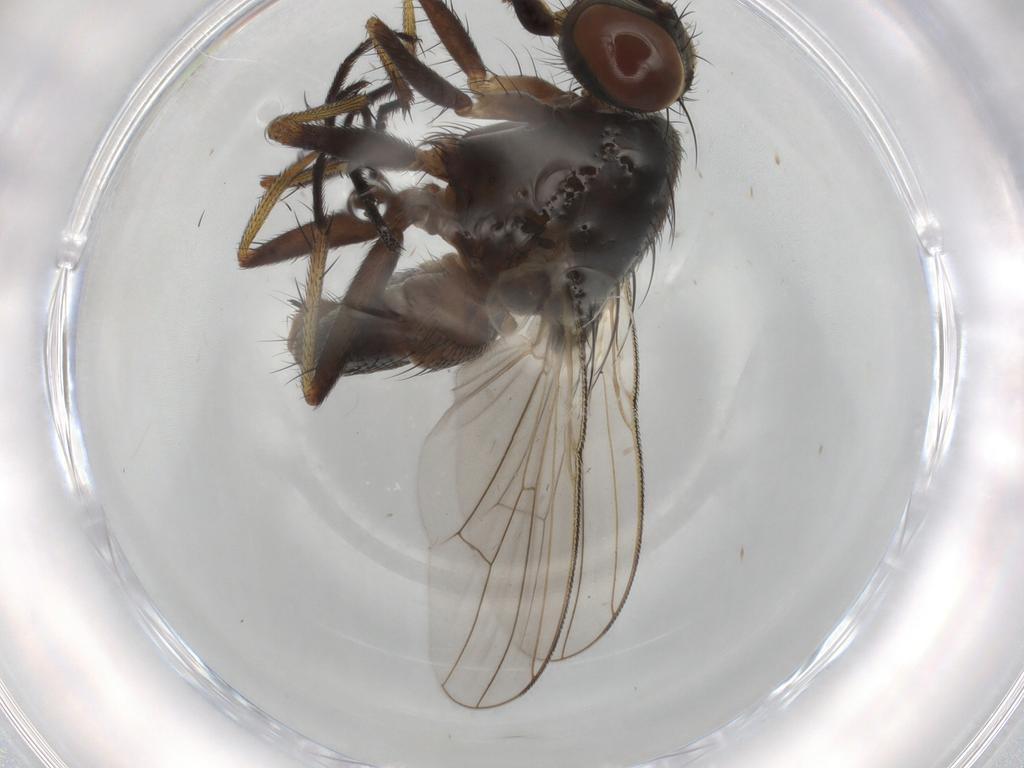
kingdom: Animalia
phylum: Arthropoda
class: Insecta
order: Diptera
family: Muscidae
